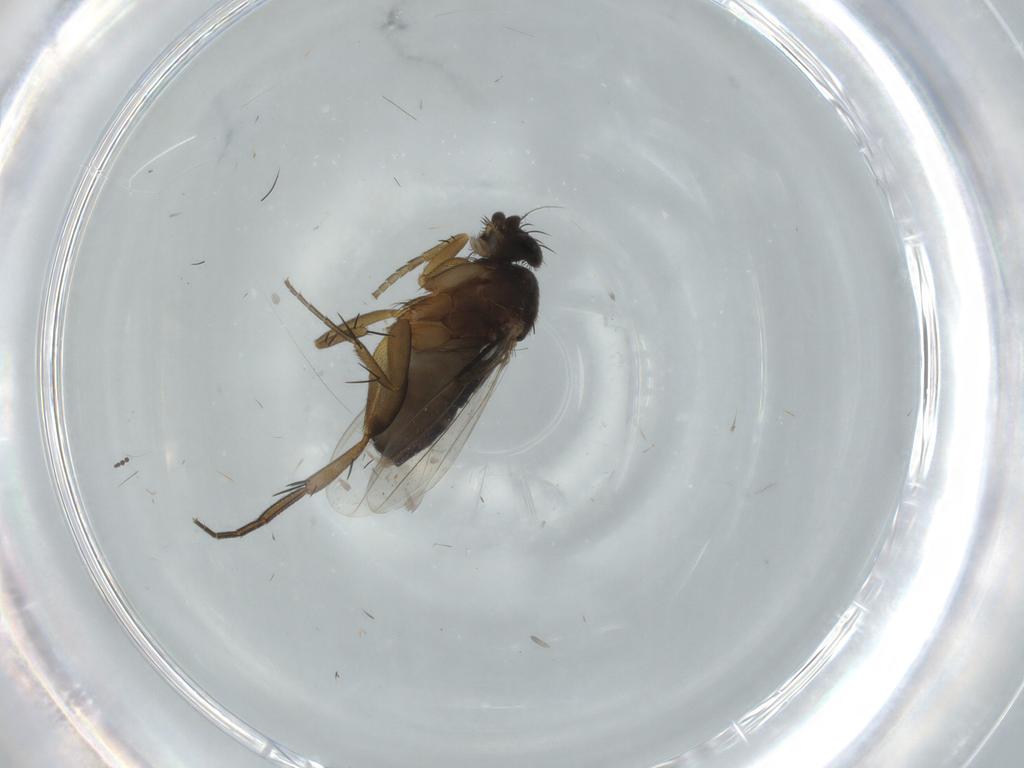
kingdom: Animalia
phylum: Arthropoda
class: Insecta
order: Diptera
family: Phoridae
